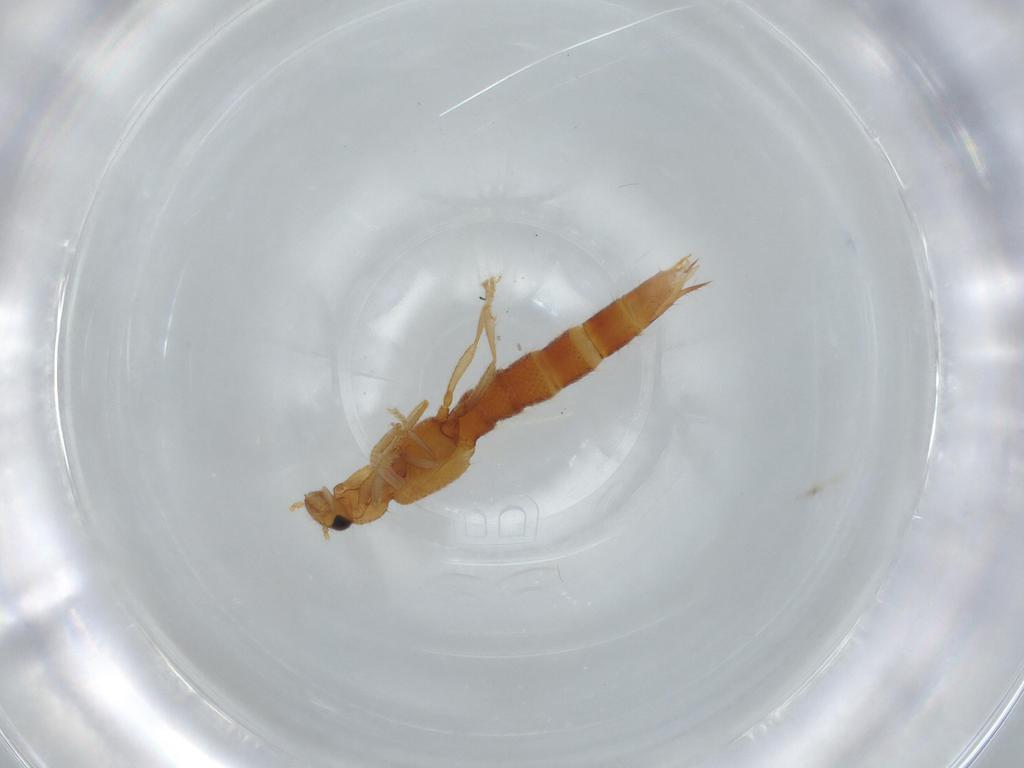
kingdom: Animalia
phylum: Arthropoda
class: Insecta
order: Coleoptera
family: Staphylinidae
